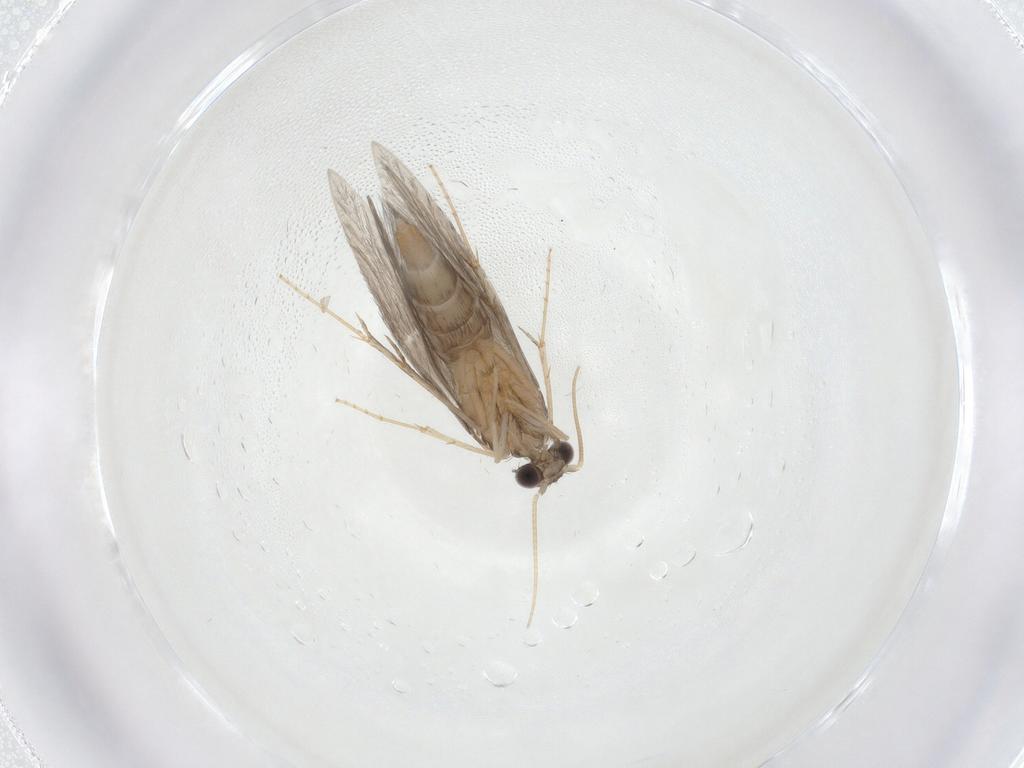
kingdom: Animalia
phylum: Arthropoda
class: Insecta
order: Trichoptera
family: Hydroptilidae
